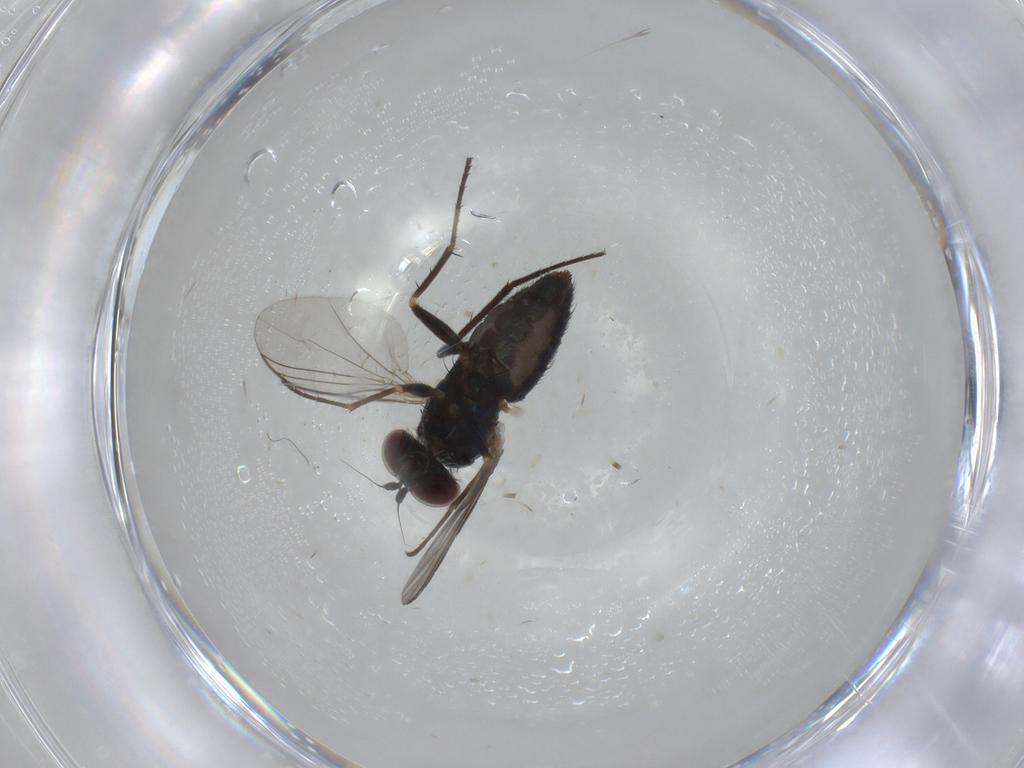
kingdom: Animalia
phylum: Arthropoda
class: Insecta
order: Diptera
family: Dolichopodidae
